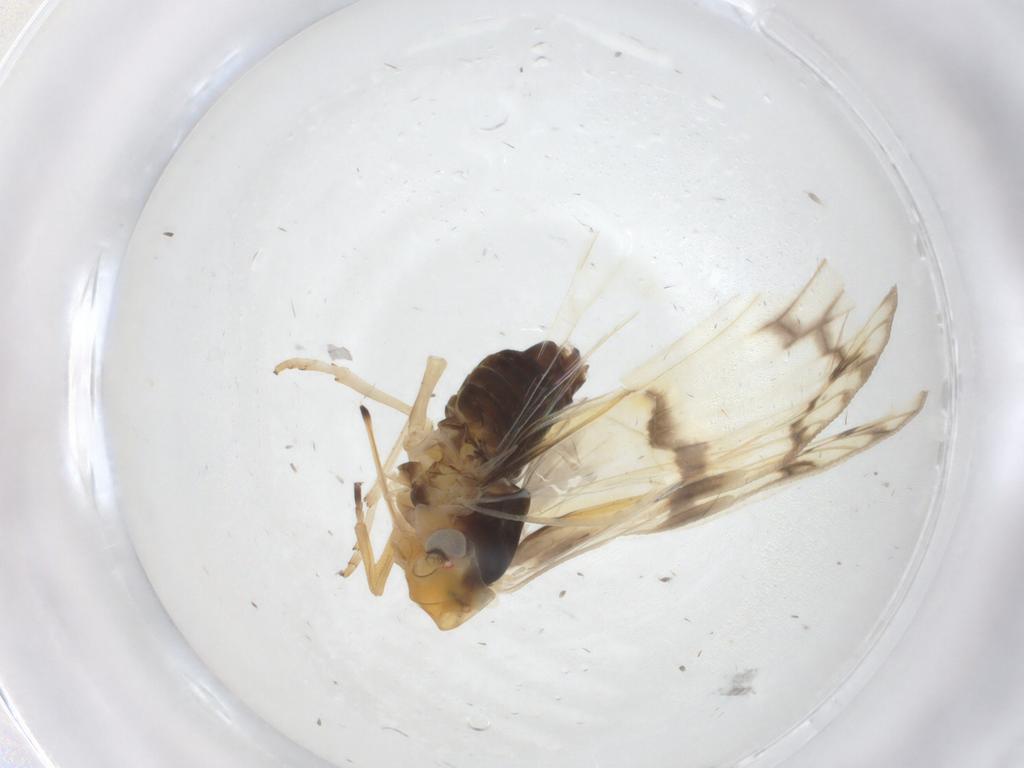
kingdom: Animalia
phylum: Arthropoda
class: Insecta
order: Hemiptera
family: Cixiidae
